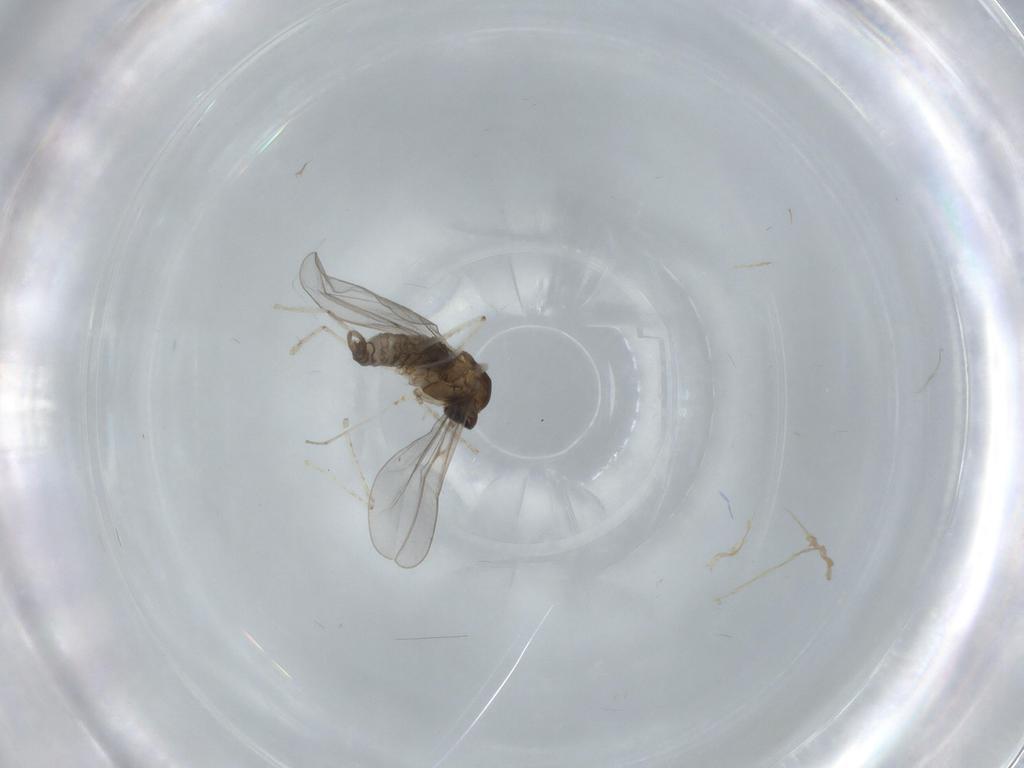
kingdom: Animalia
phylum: Arthropoda
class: Insecta
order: Diptera
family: Cecidomyiidae
